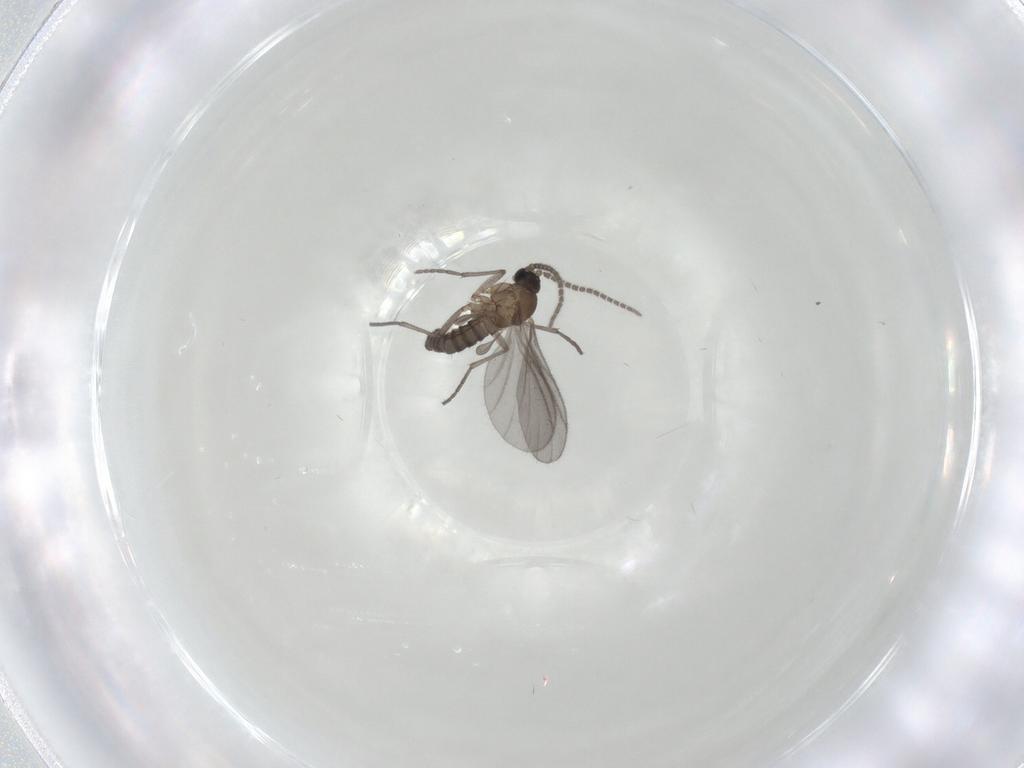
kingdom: Animalia
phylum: Arthropoda
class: Insecta
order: Diptera
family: Sciaridae
